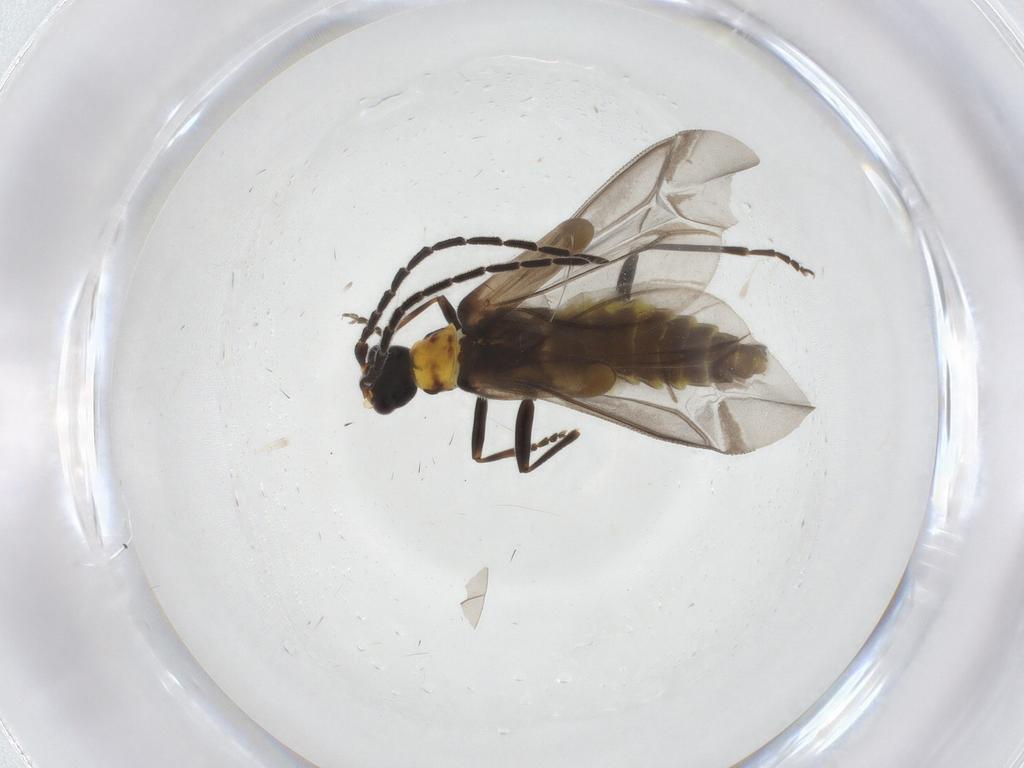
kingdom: Animalia
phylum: Arthropoda
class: Insecta
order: Coleoptera
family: Cantharidae
